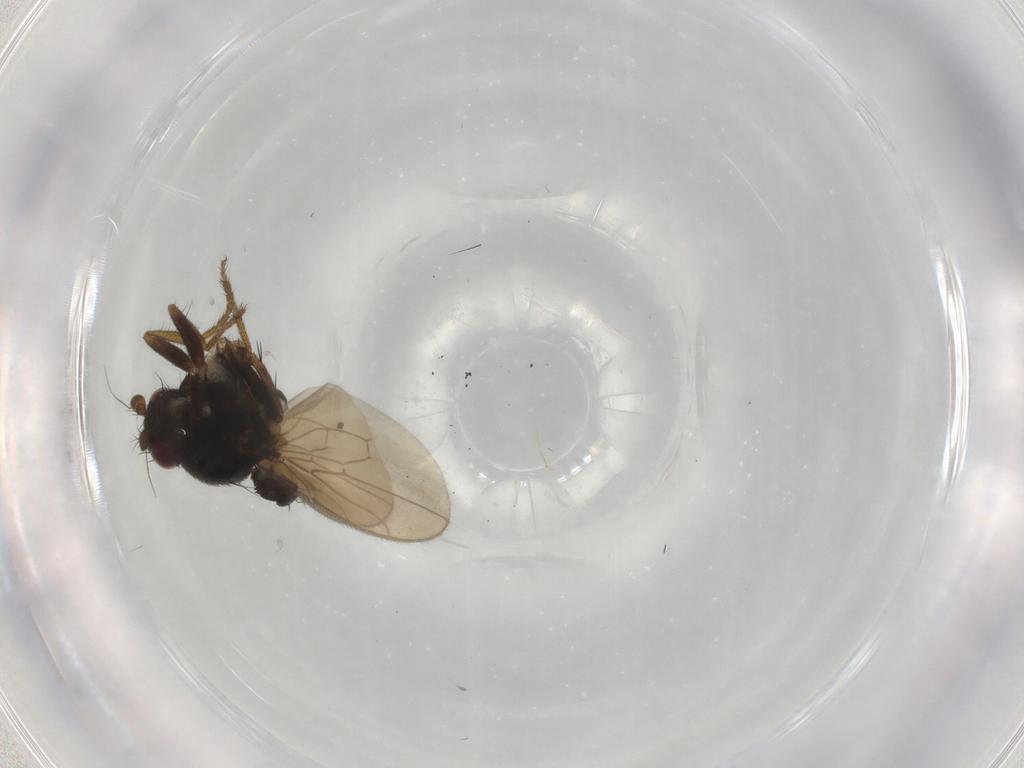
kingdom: Animalia
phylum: Arthropoda
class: Insecta
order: Diptera
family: Sphaeroceridae
